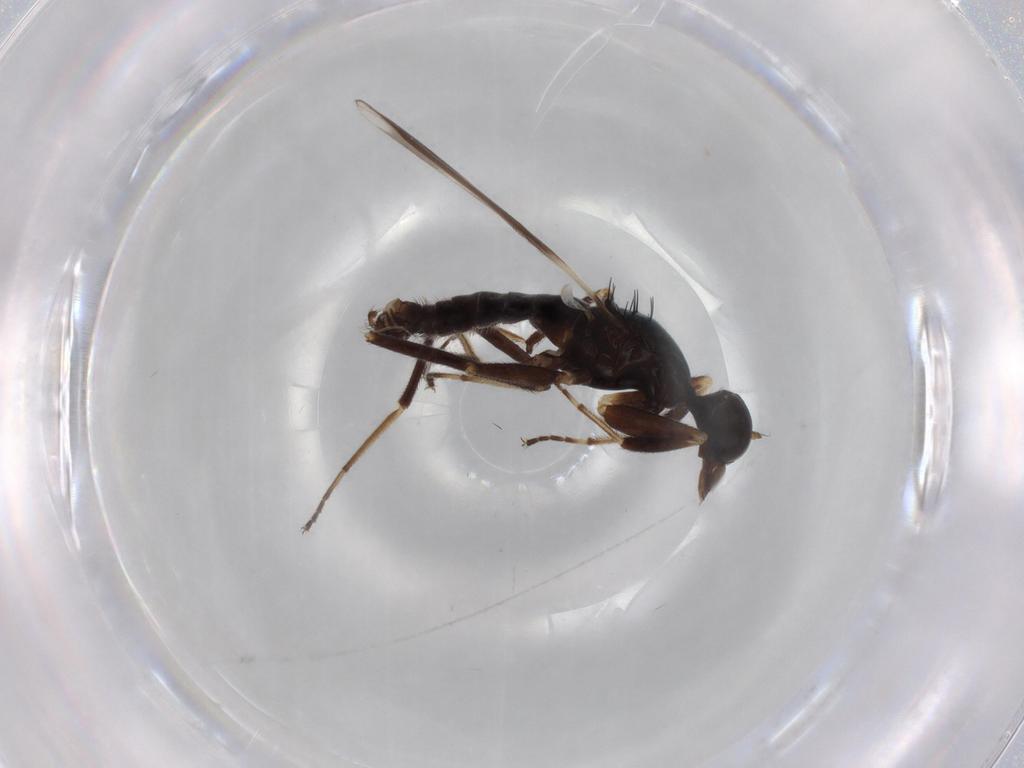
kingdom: Animalia
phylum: Arthropoda
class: Insecta
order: Diptera
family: Hybotidae
